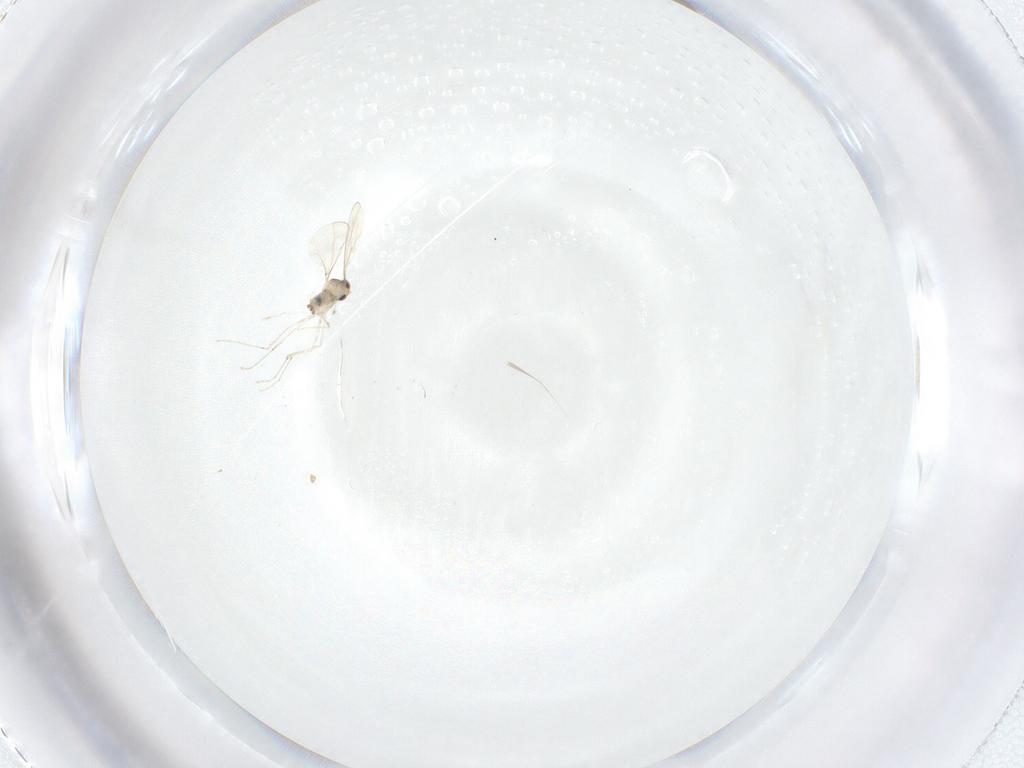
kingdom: Animalia
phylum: Arthropoda
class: Insecta
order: Diptera
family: Cecidomyiidae
